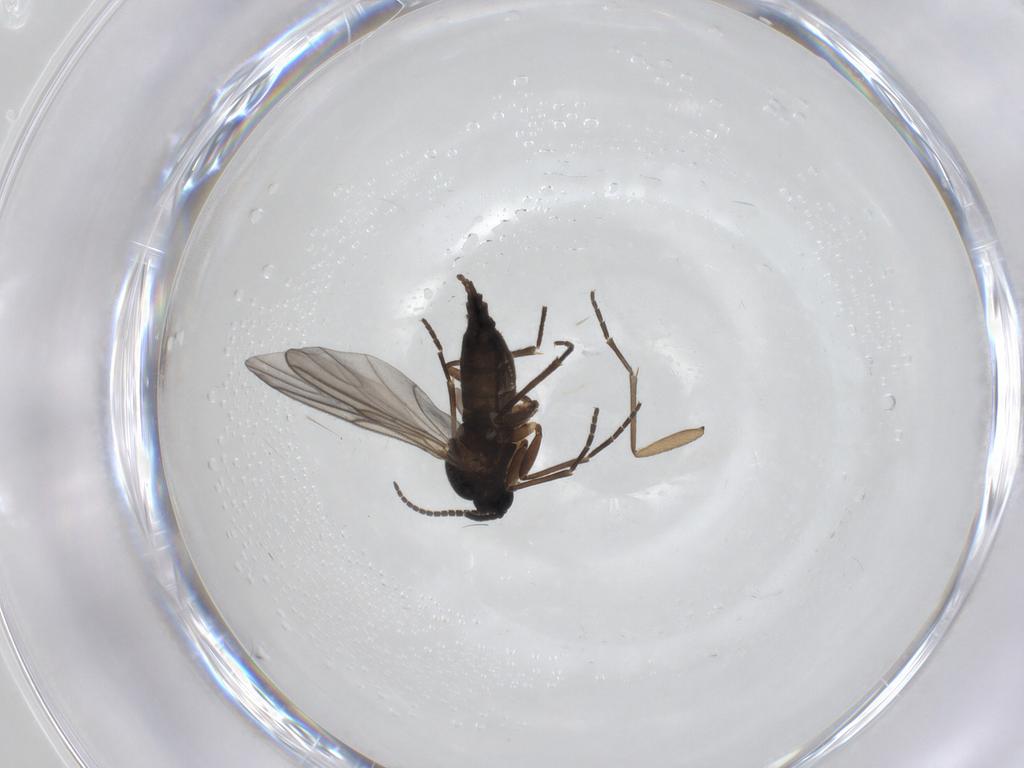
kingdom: Animalia
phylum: Arthropoda
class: Insecta
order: Diptera
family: Sciaridae
